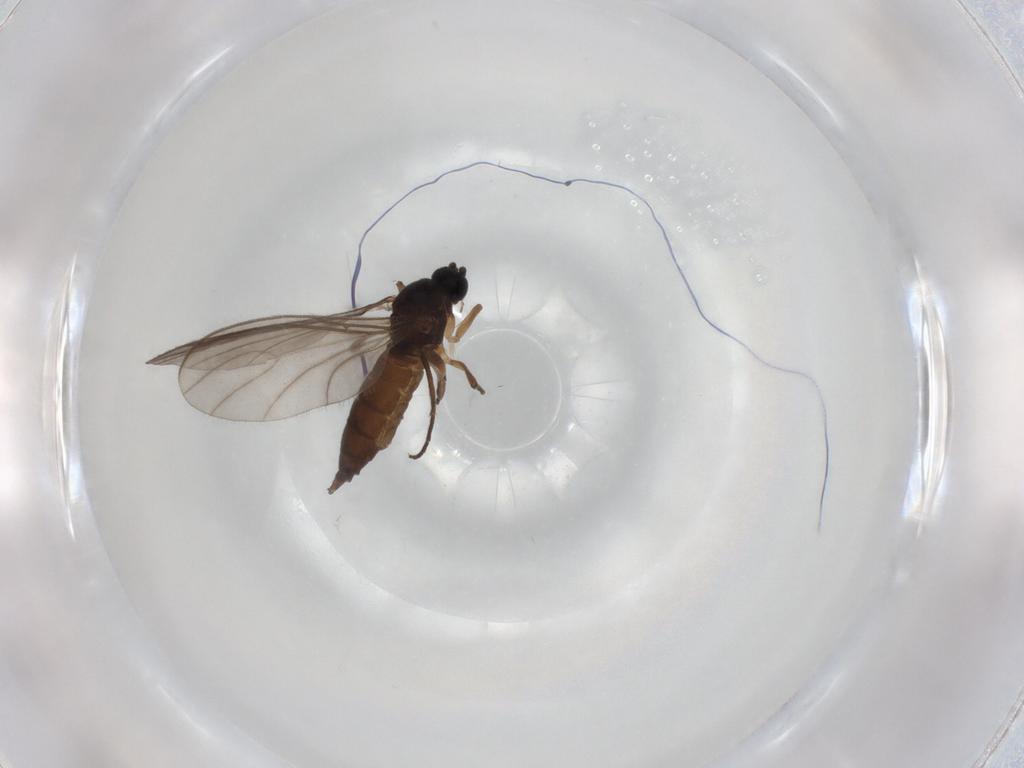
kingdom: Animalia
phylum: Arthropoda
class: Insecta
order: Diptera
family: Sciaridae
